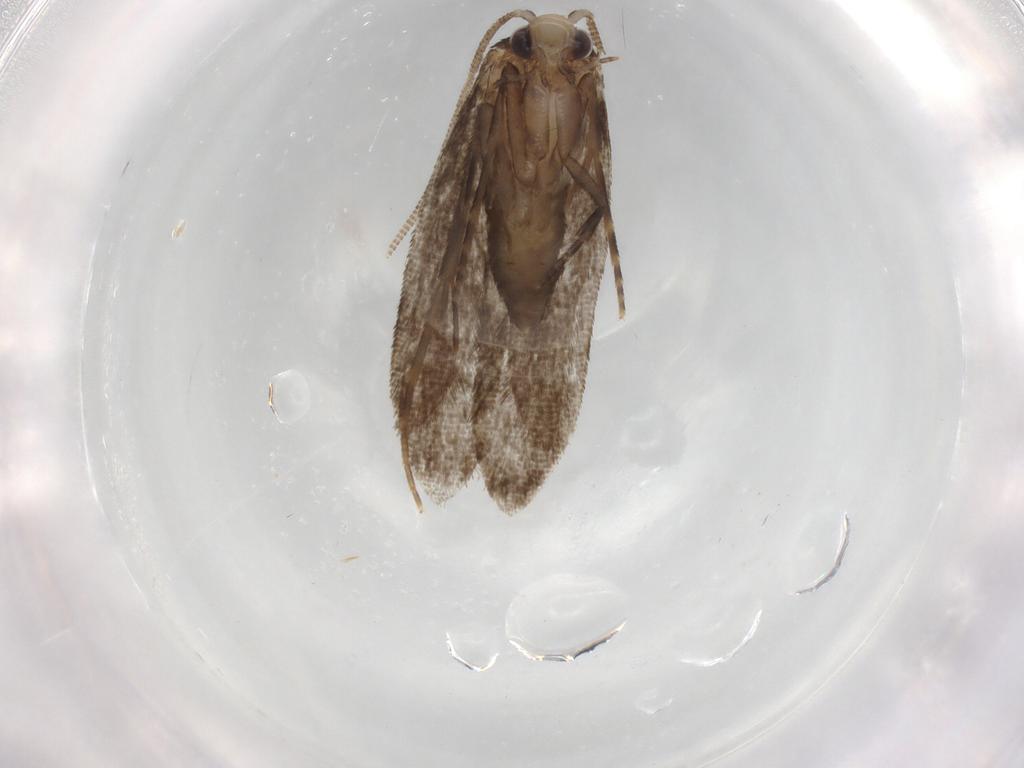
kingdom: Animalia
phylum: Arthropoda
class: Insecta
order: Lepidoptera
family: Tineidae
